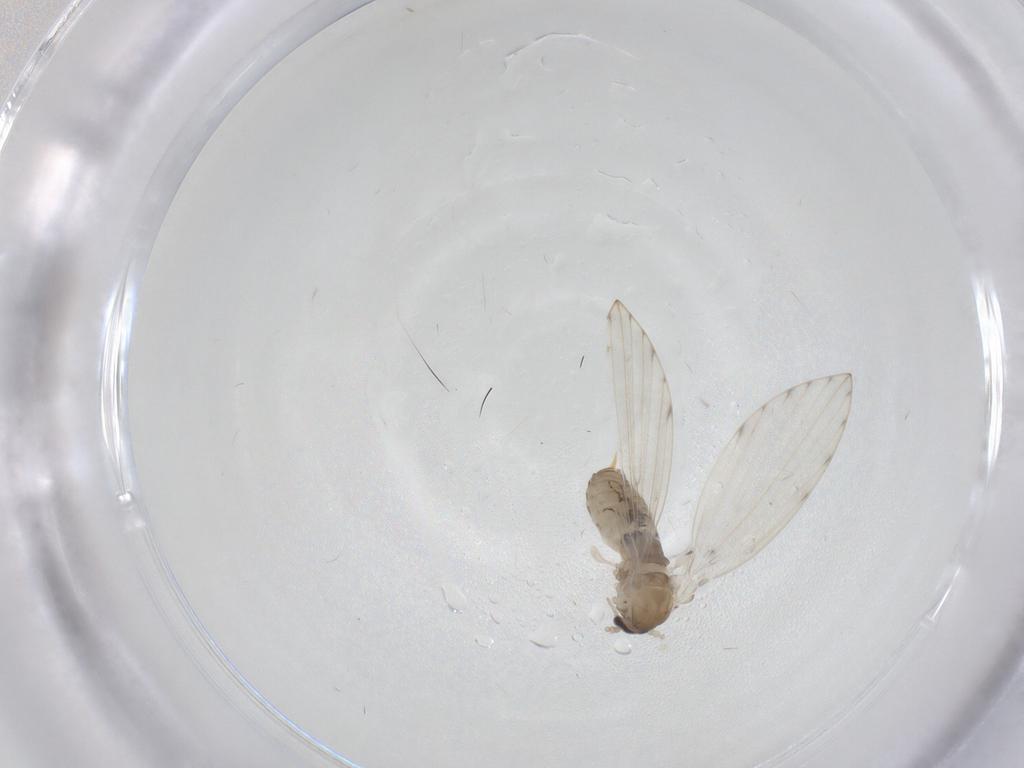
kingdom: Animalia
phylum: Arthropoda
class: Insecta
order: Diptera
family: Psychodidae
